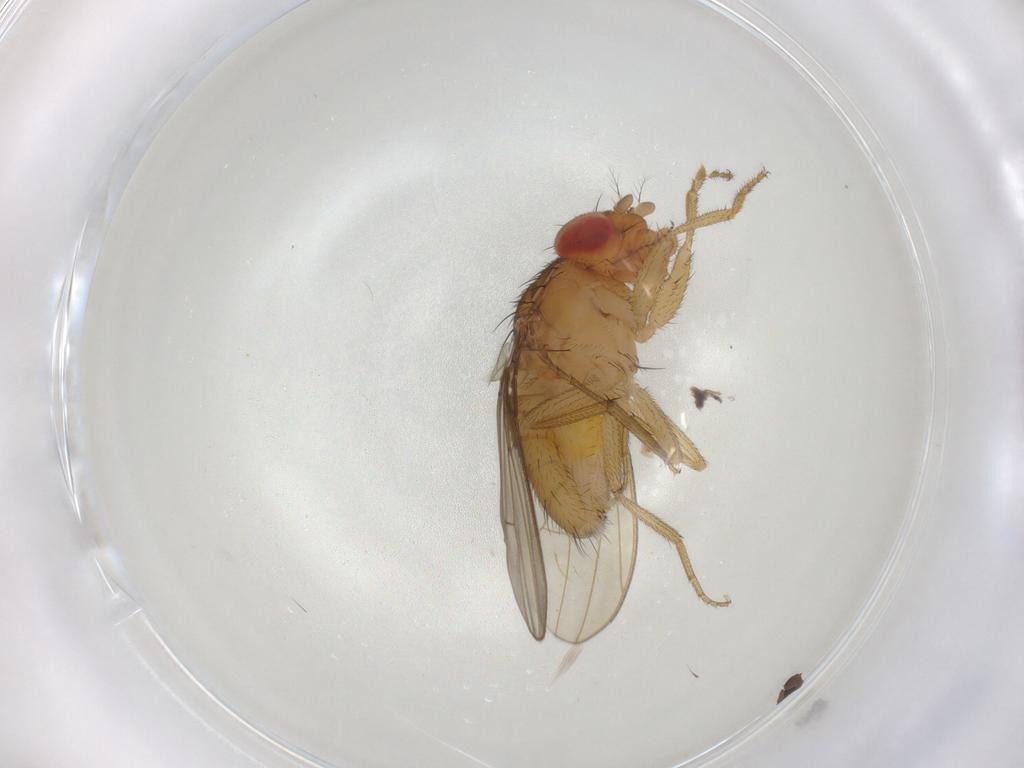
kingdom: Animalia
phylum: Arthropoda
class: Insecta
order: Diptera
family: Drosophilidae
